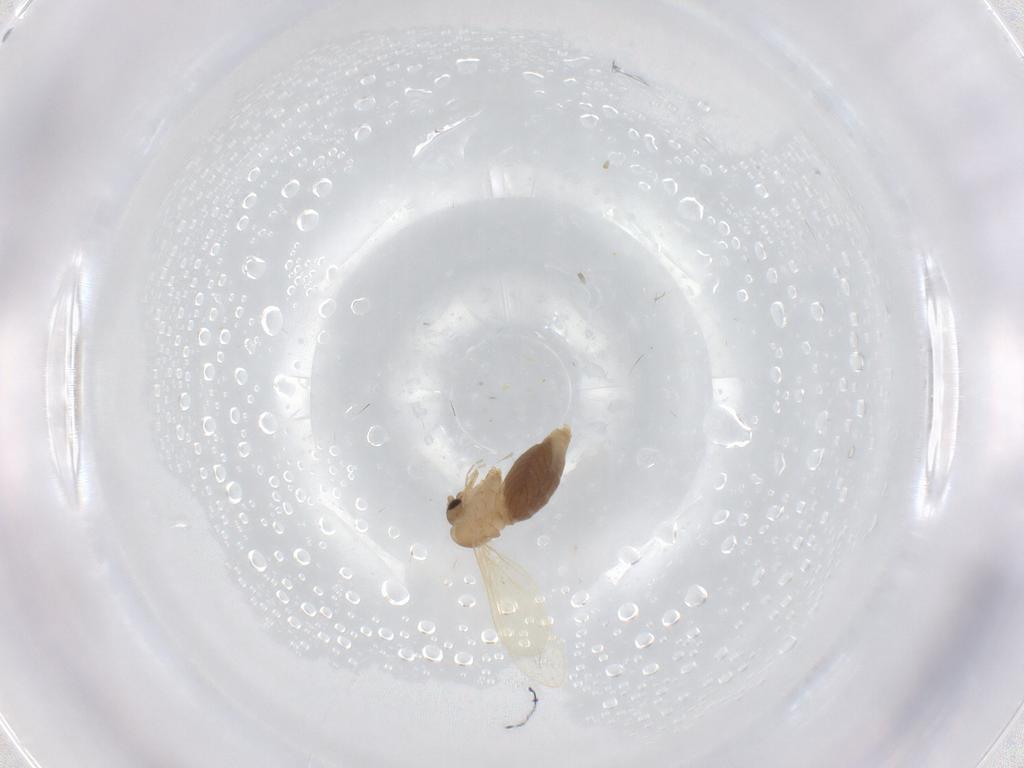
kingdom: Animalia
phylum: Arthropoda
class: Insecta
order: Diptera
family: Psychodidae
